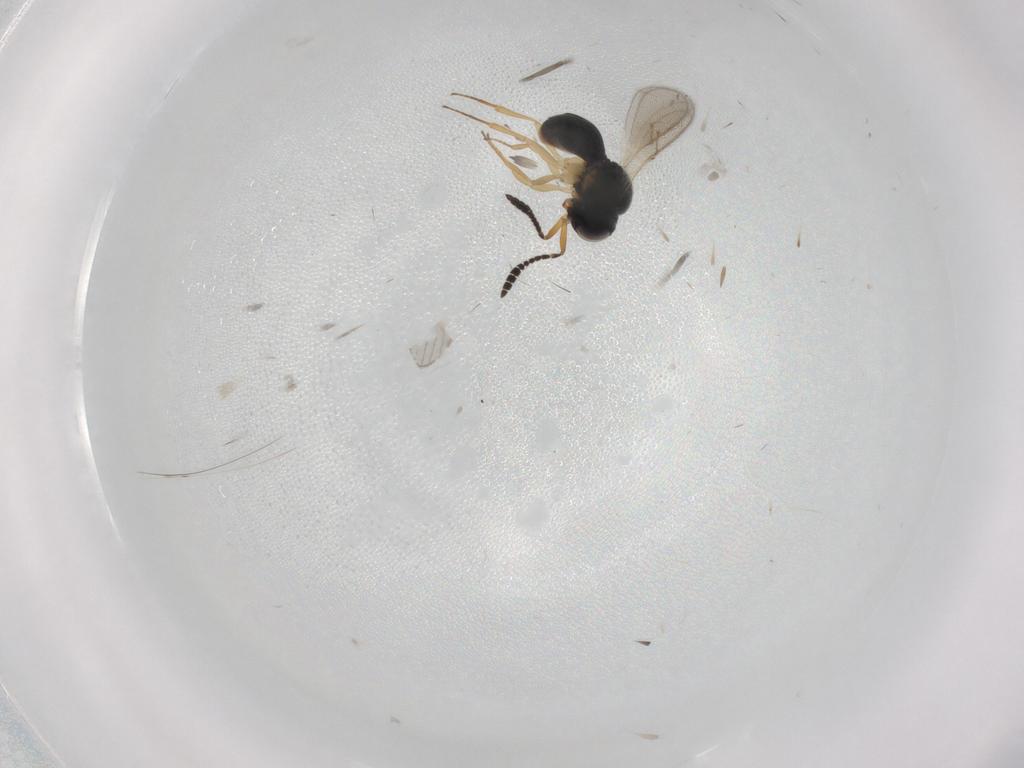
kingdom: Animalia
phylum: Arthropoda
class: Insecta
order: Hymenoptera
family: Scelionidae
